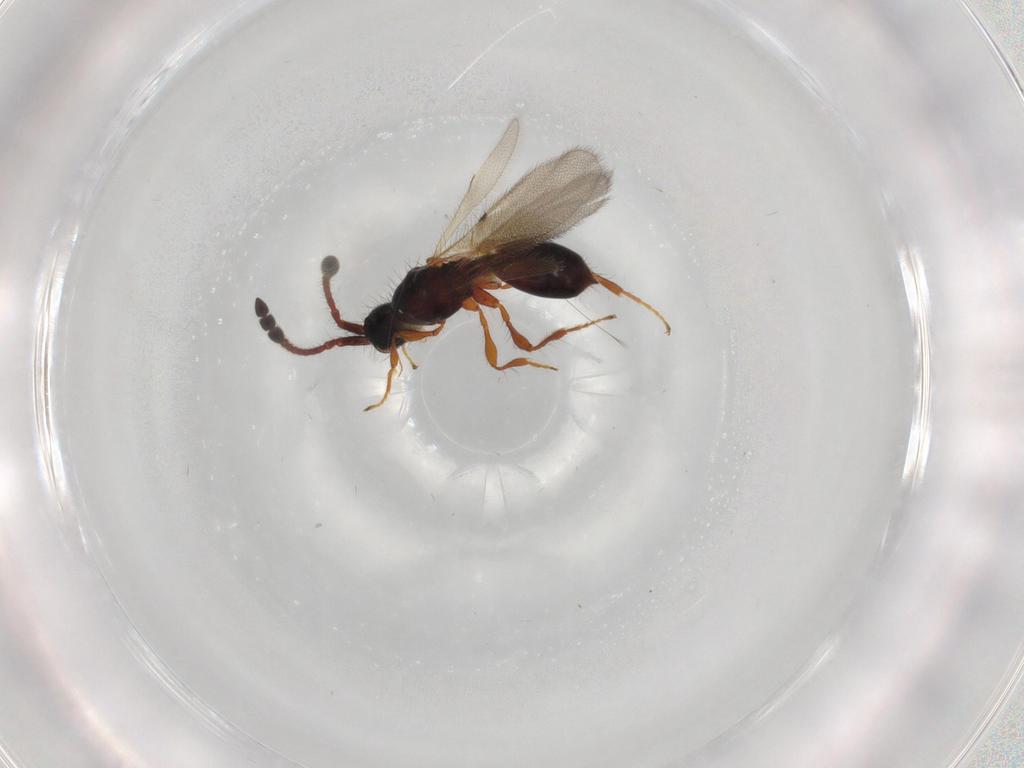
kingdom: Animalia
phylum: Arthropoda
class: Insecta
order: Hymenoptera
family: Diapriidae
